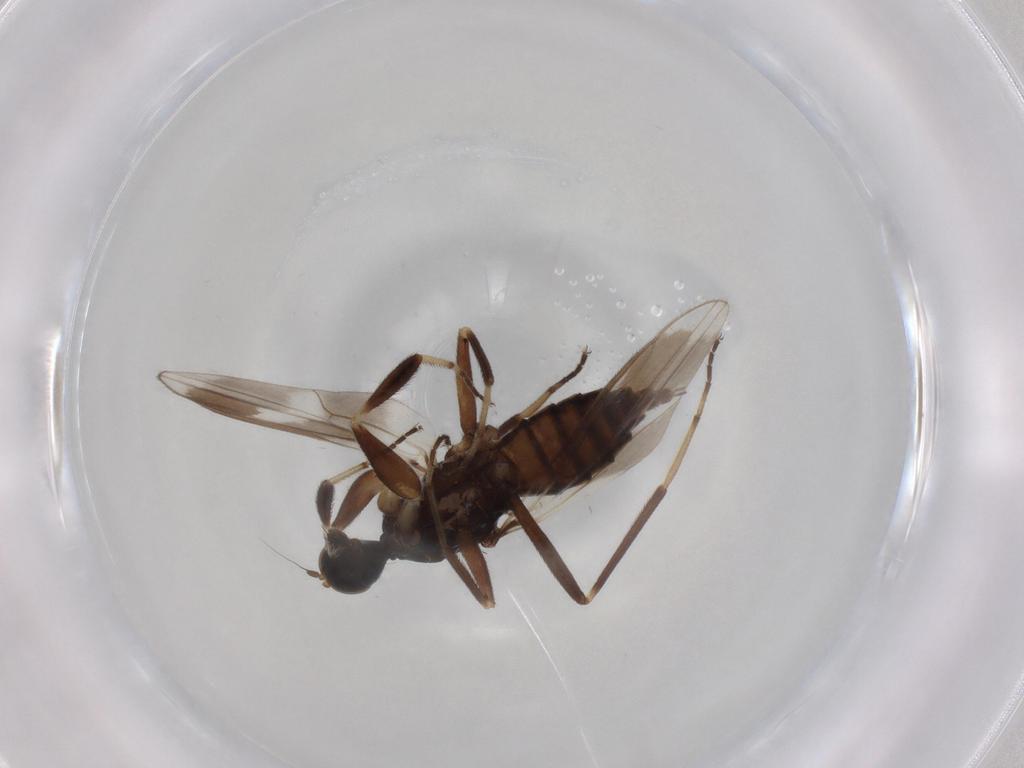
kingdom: Animalia
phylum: Arthropoda
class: Insecta
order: Diptera
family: Hybotidae
